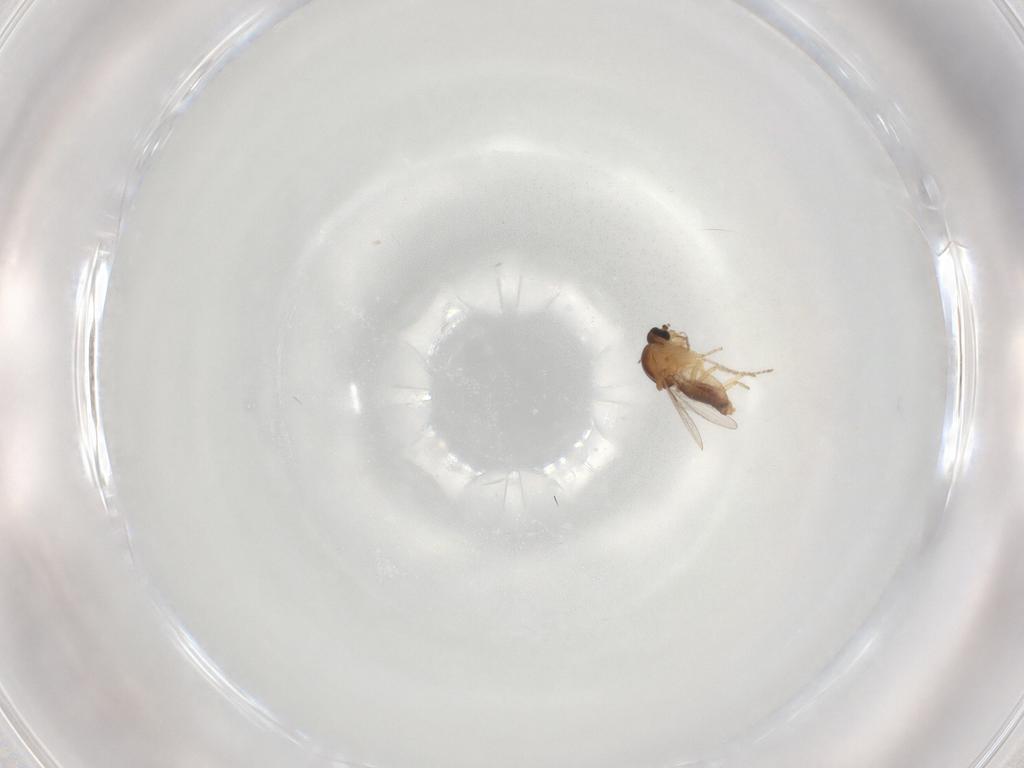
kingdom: Animalia
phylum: Arthropoda
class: Insecta
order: Diptera
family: Ceratopogonidae
